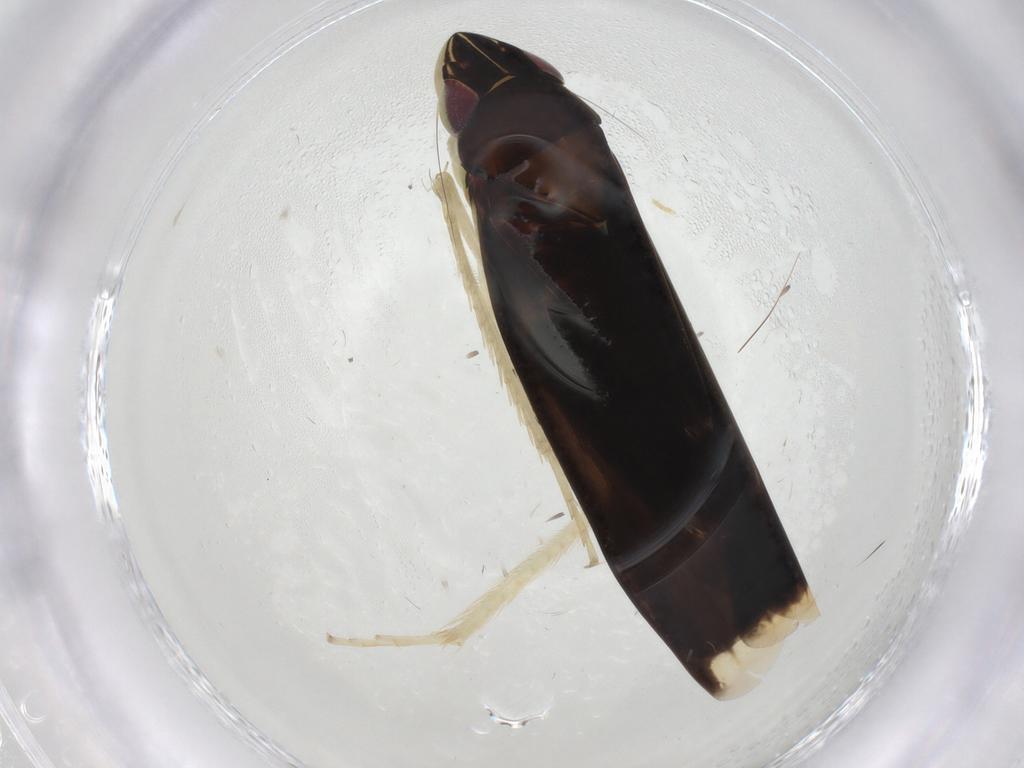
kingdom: Animalia
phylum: Arthropoda
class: Insecta
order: Hemiptera
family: Cicadellidae
